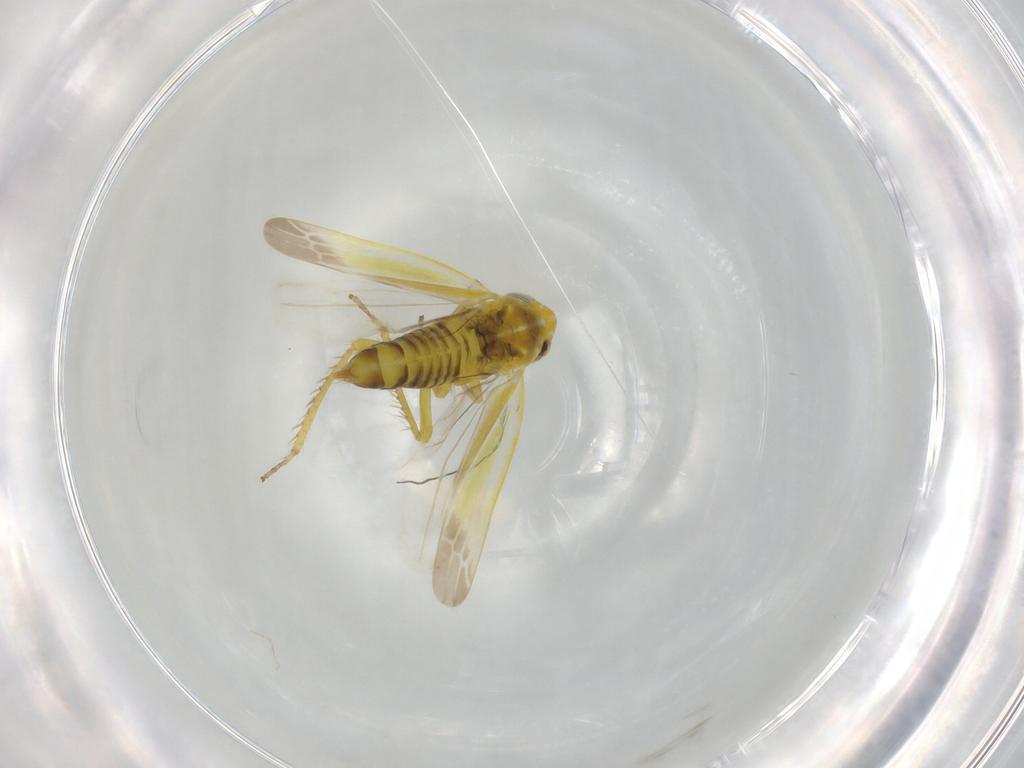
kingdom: Animalia
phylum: Arthropoda
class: Insecta
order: Hemiptera
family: Cicadellidae
